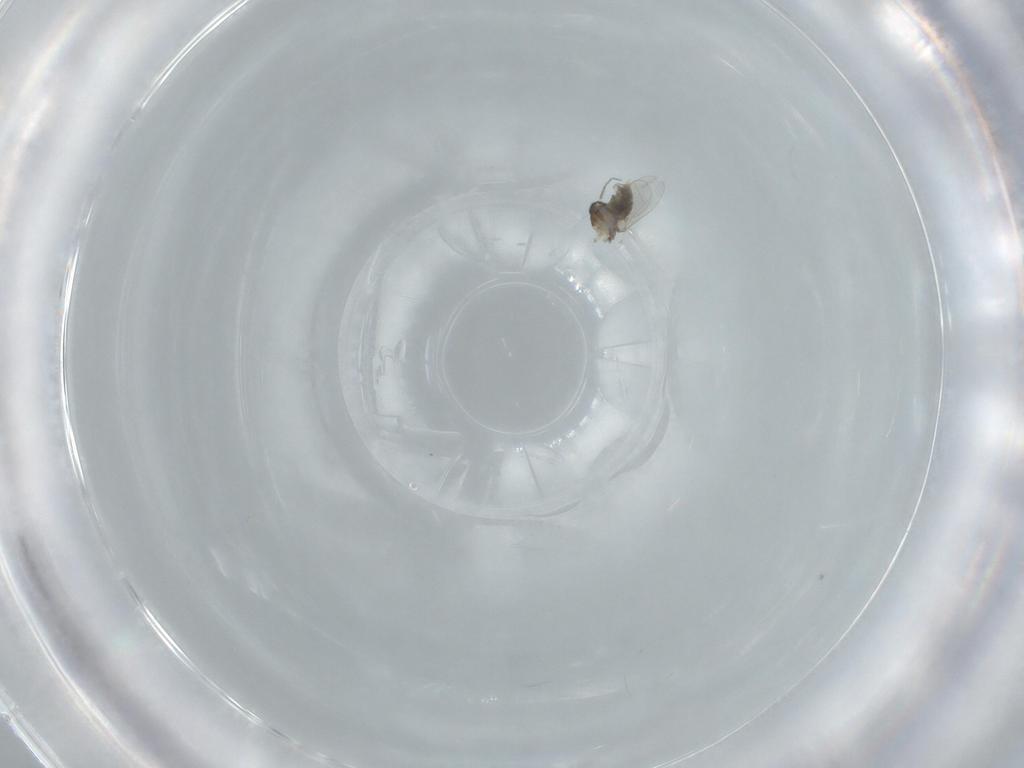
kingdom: Animalia
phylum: Arthropoda
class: Insecta
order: Diptera
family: Ceratopogonidae
